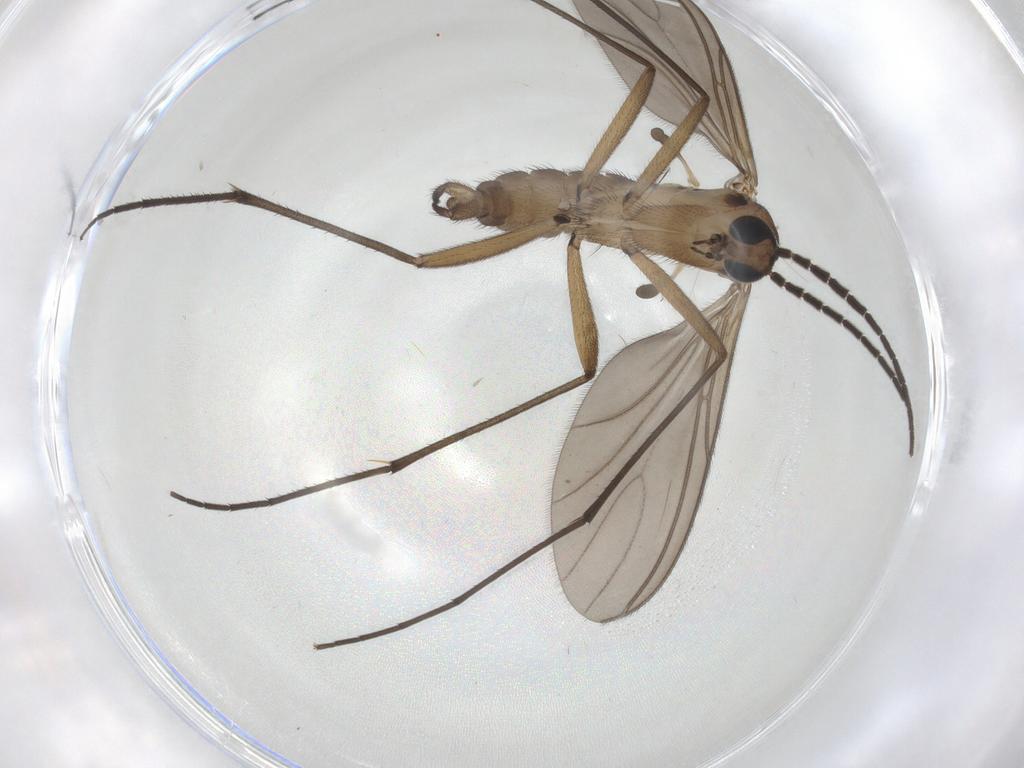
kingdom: Animalia
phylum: Arthropoda
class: Insecta
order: Diptera
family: Sciaridae
